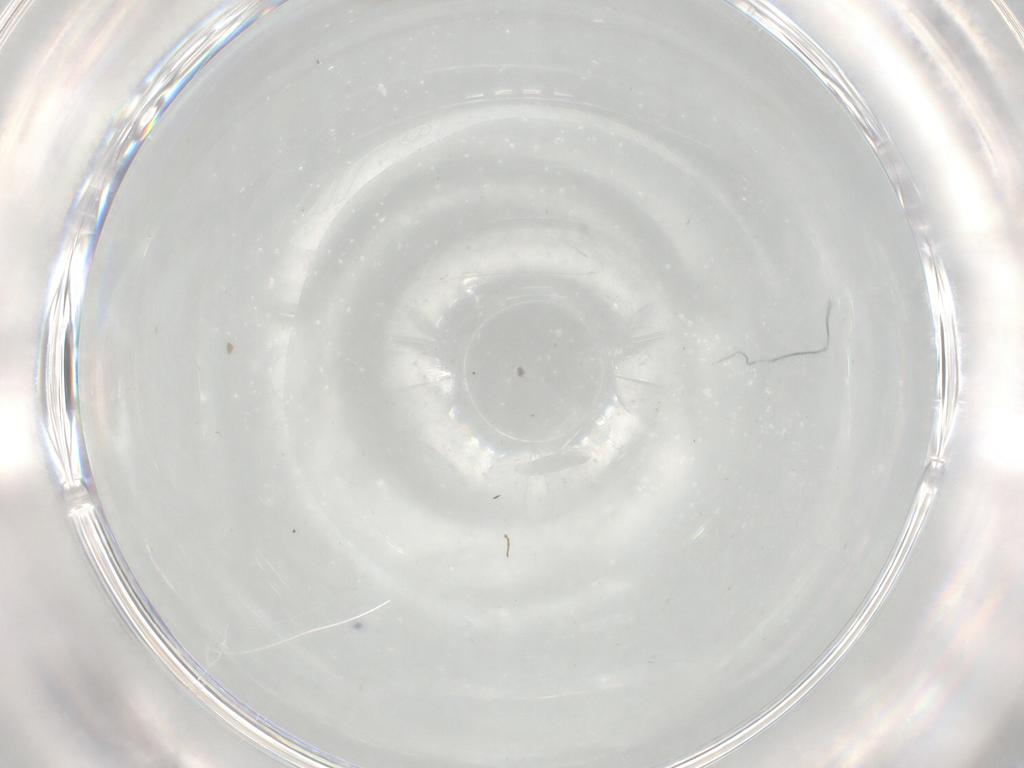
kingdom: Animalia
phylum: Arthropoda
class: Insecta
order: Diptera
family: Cecidomyiidae
